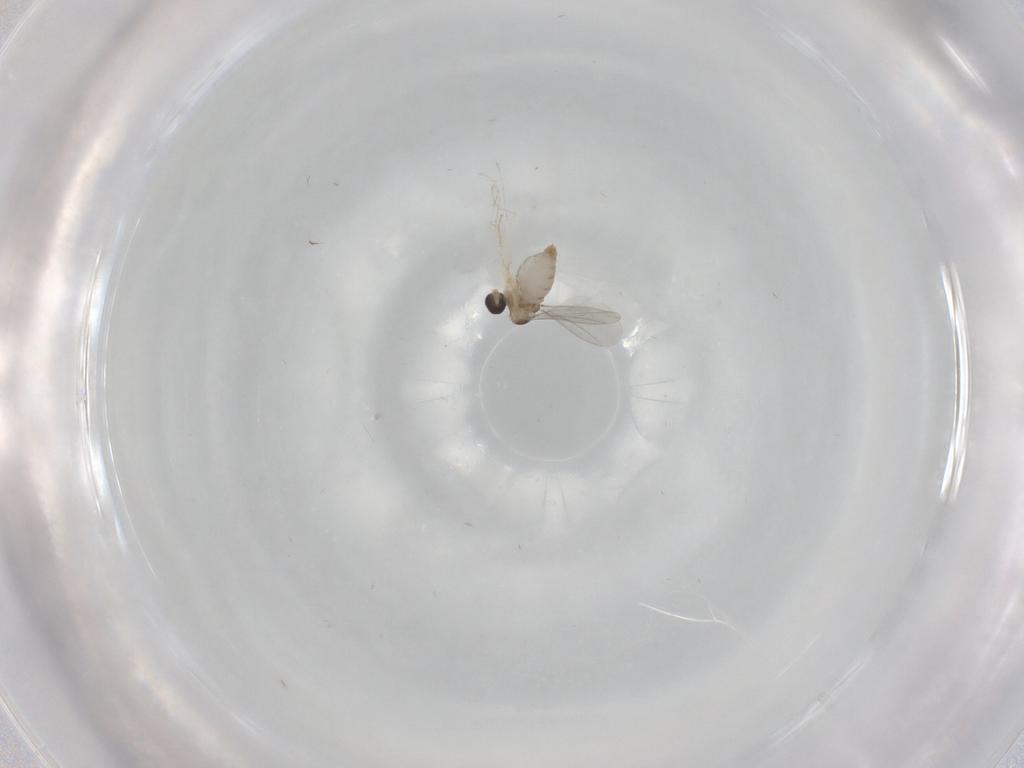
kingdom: Animalia
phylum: Arthropoda
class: Insecta
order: Diptera
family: Cecidomyiidae
